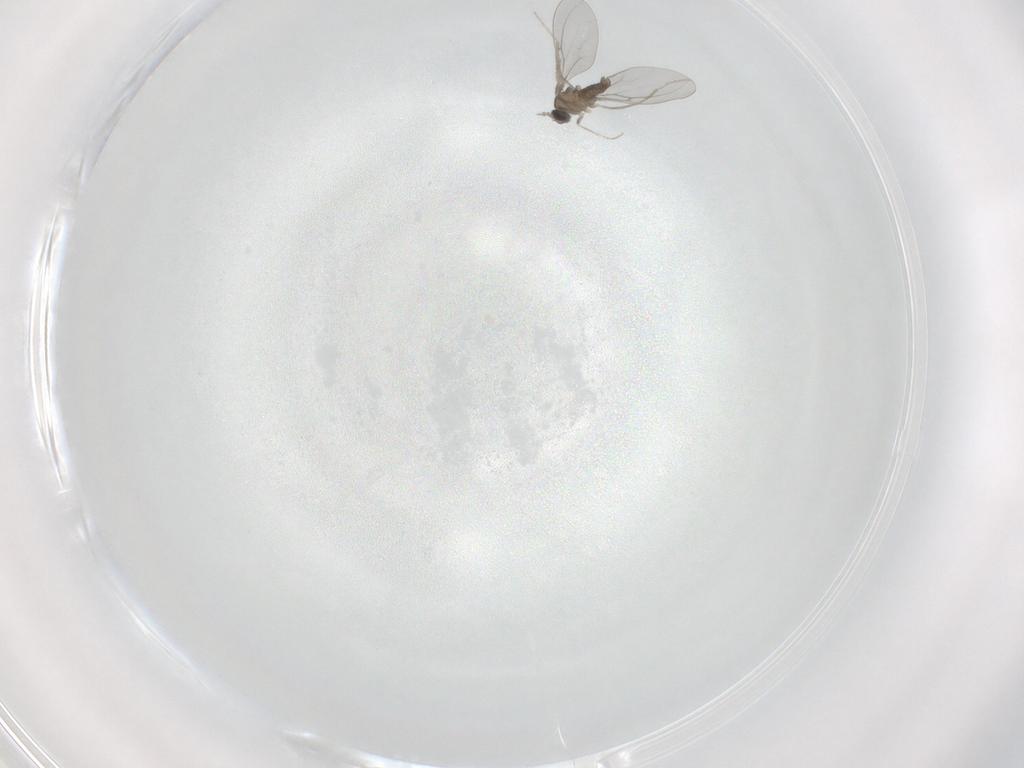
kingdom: Animalia
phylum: Arthropoda
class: Insecta
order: Diptera
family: Cecidomyiidae
